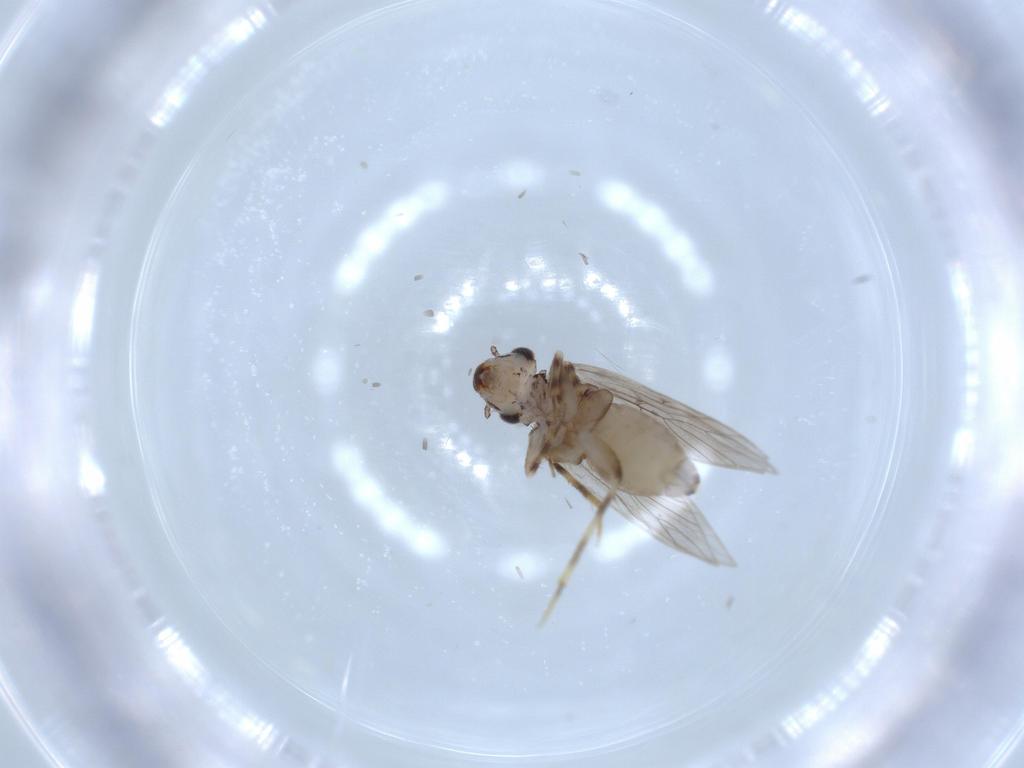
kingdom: Animalia
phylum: Arthropoda
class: Insecta
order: Psocodea
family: Lepidopsocidae
